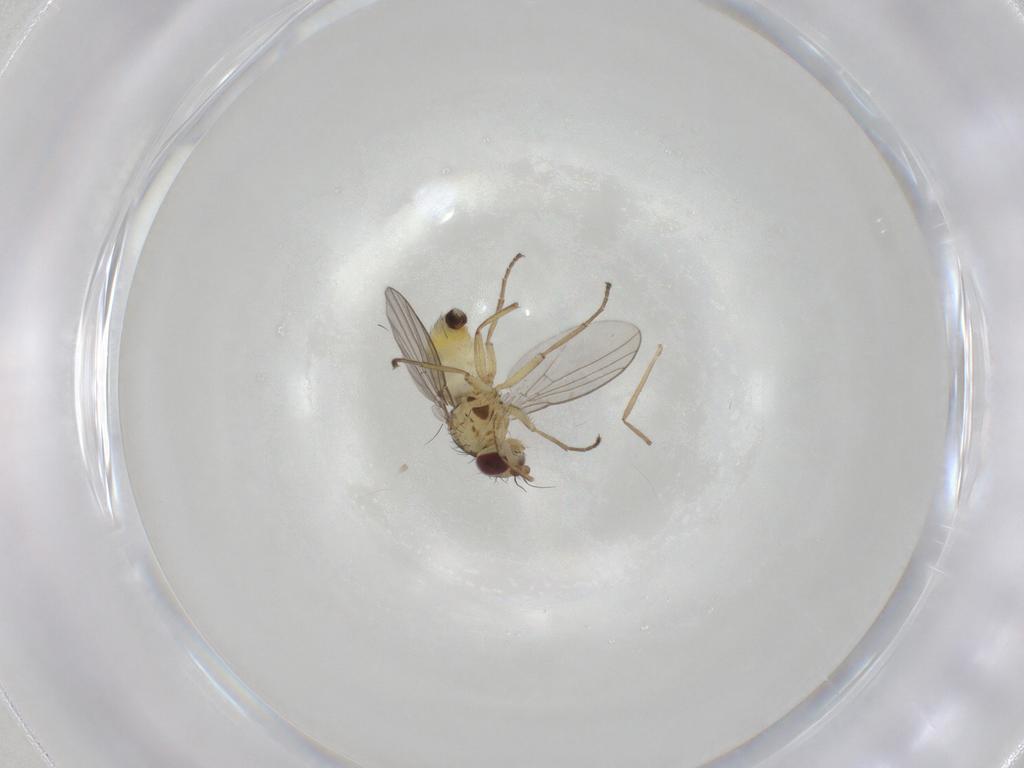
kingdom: Animalia
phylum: Arthropoda
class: Insecta
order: Diptera
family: Agromyzidae
